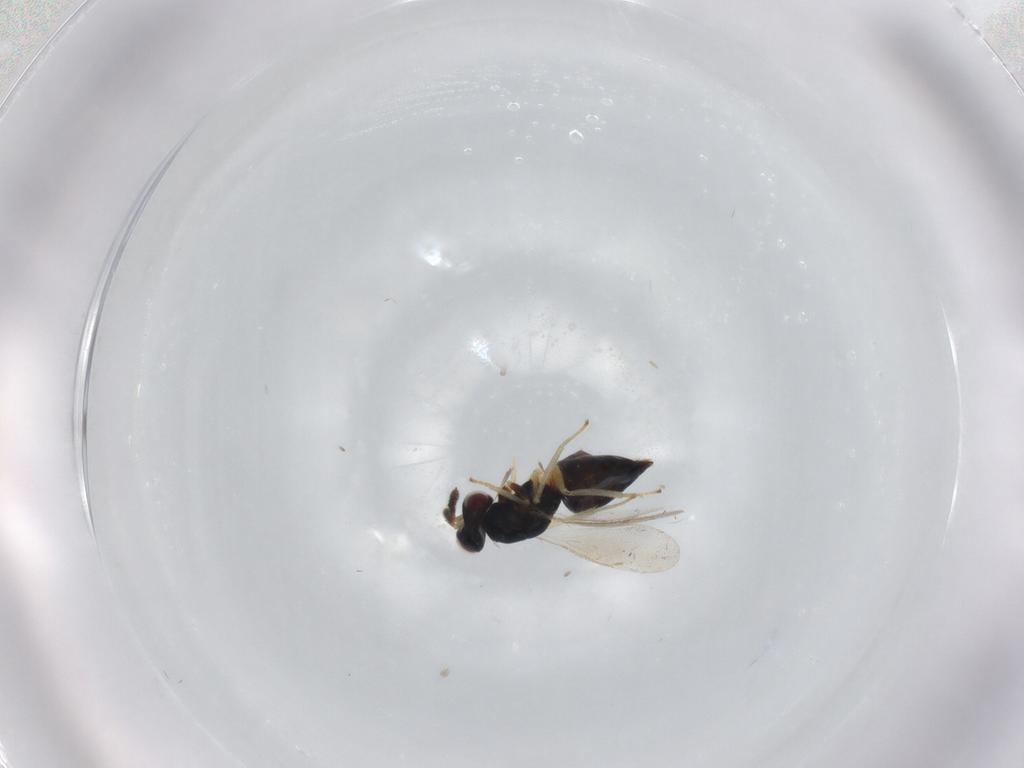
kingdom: Animalia
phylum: Arthropoda
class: Insecta
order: Hymenoptera
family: Eulophidae
